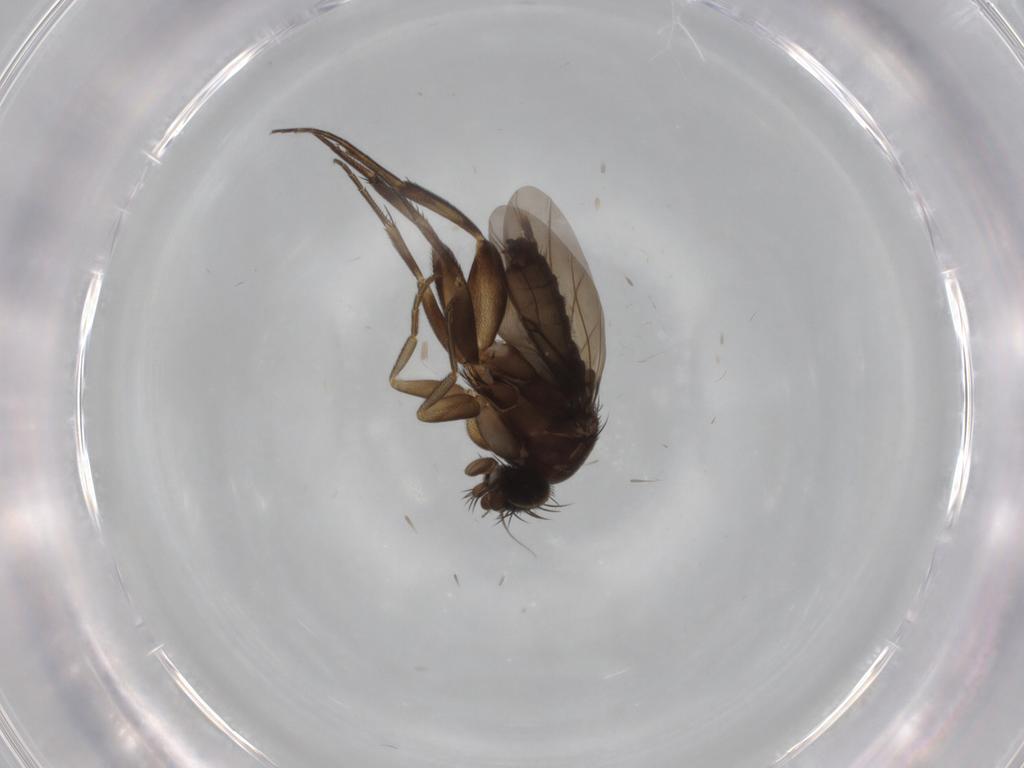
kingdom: Animalia
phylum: Arthropoda
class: Insecta
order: Diptera
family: Phoridae
